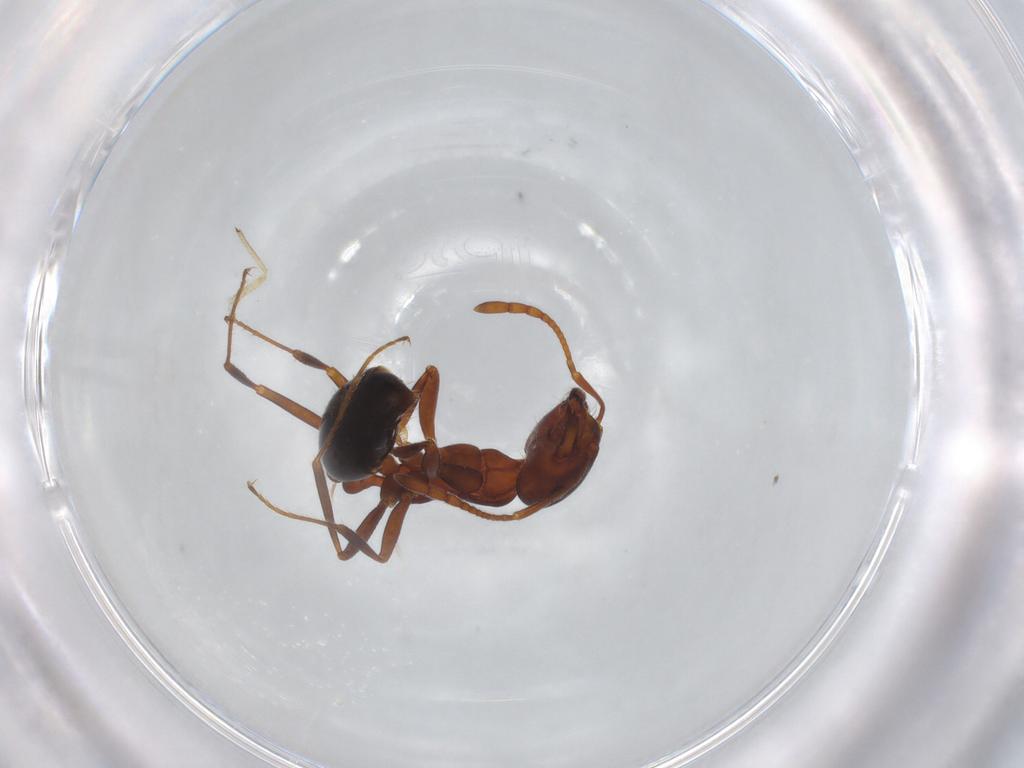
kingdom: Animalia
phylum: Arthropoda
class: Insecta
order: Hymenoptera
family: Formicidae
